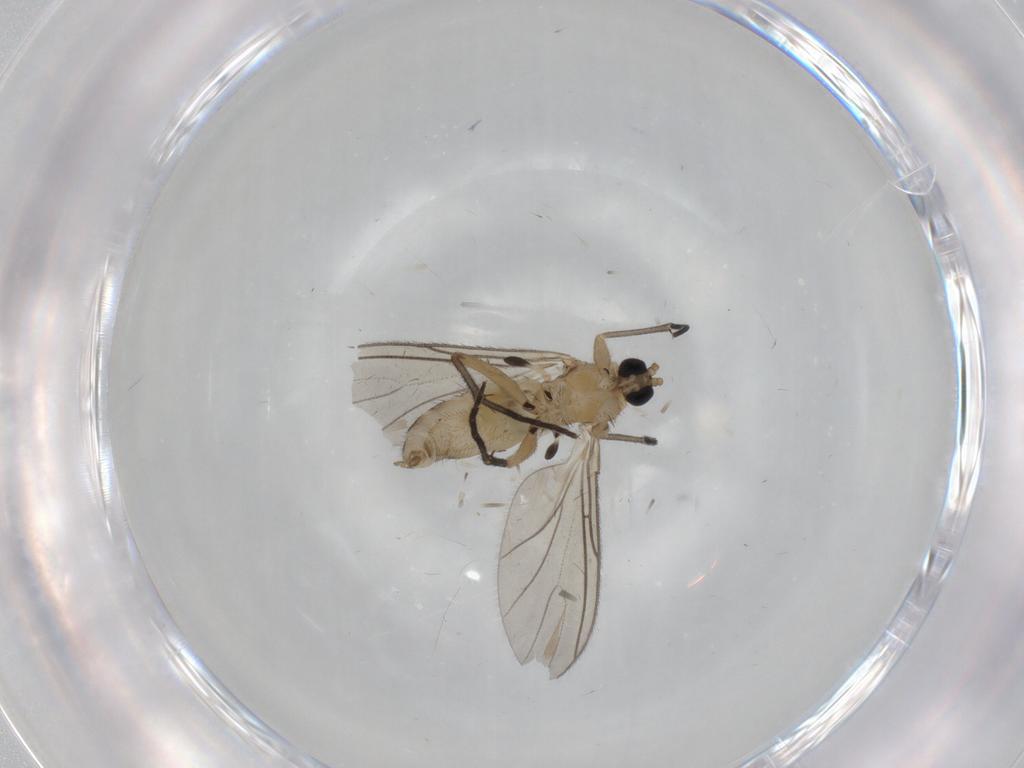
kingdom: Animalia
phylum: Arthropoda
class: Insecta
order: Diptera
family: Sciaridae
